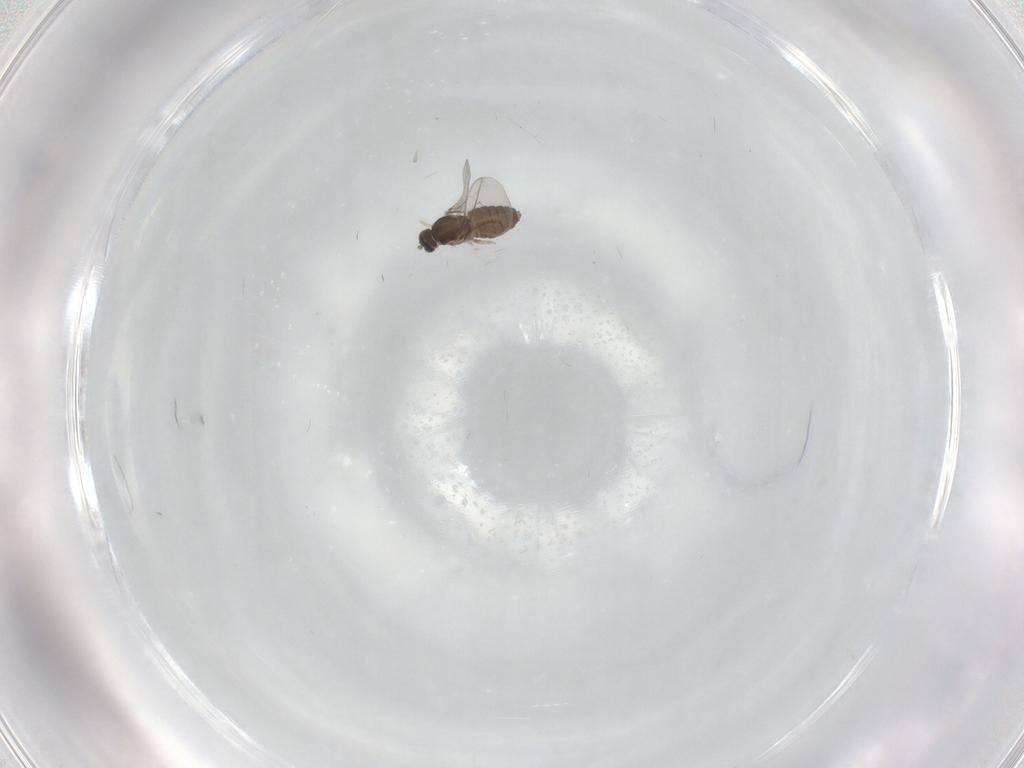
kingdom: Animalia
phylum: Arthropoda
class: Insecta
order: Diptera
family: Cecidomyiidae
